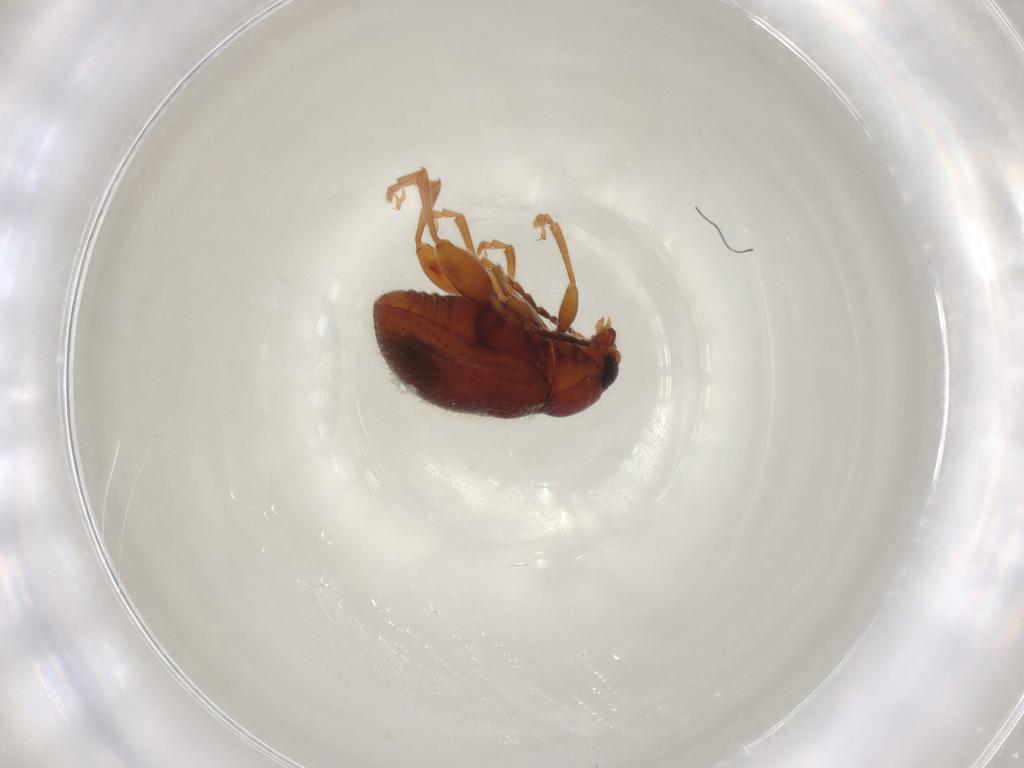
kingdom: Animalia
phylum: Arthropoda
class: Insecta
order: Coleoptera
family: Chrysomelidae
